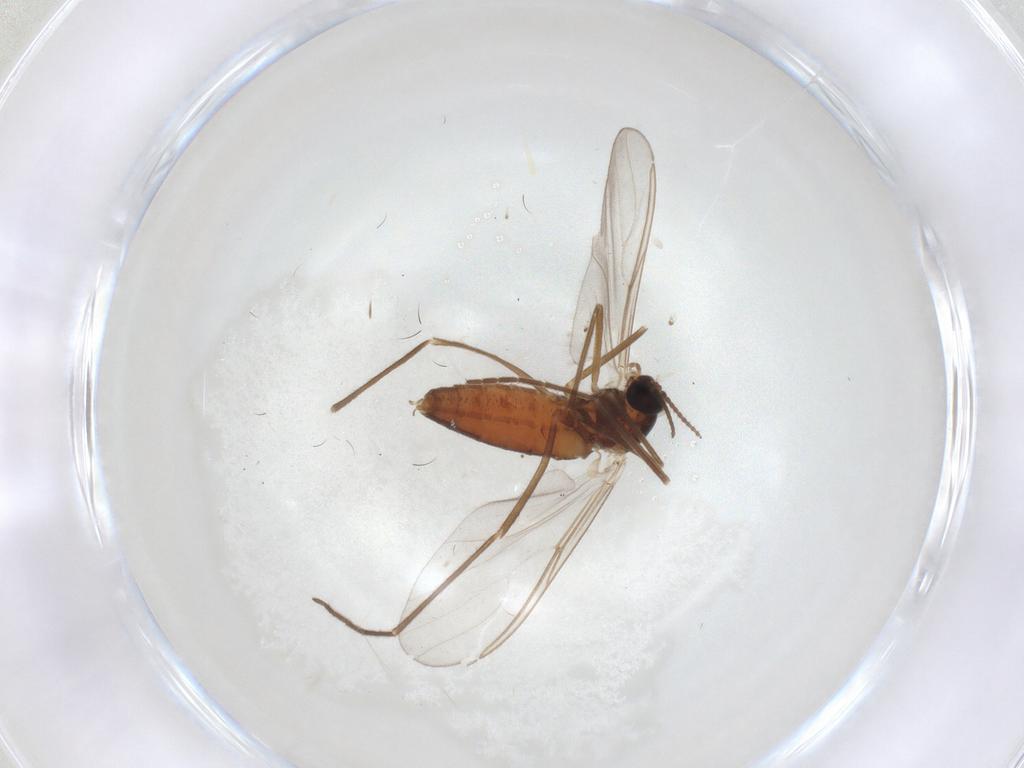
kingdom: Animalia
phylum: Arthropoda
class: Insecta
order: Diptera
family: Cecidomyiidae
